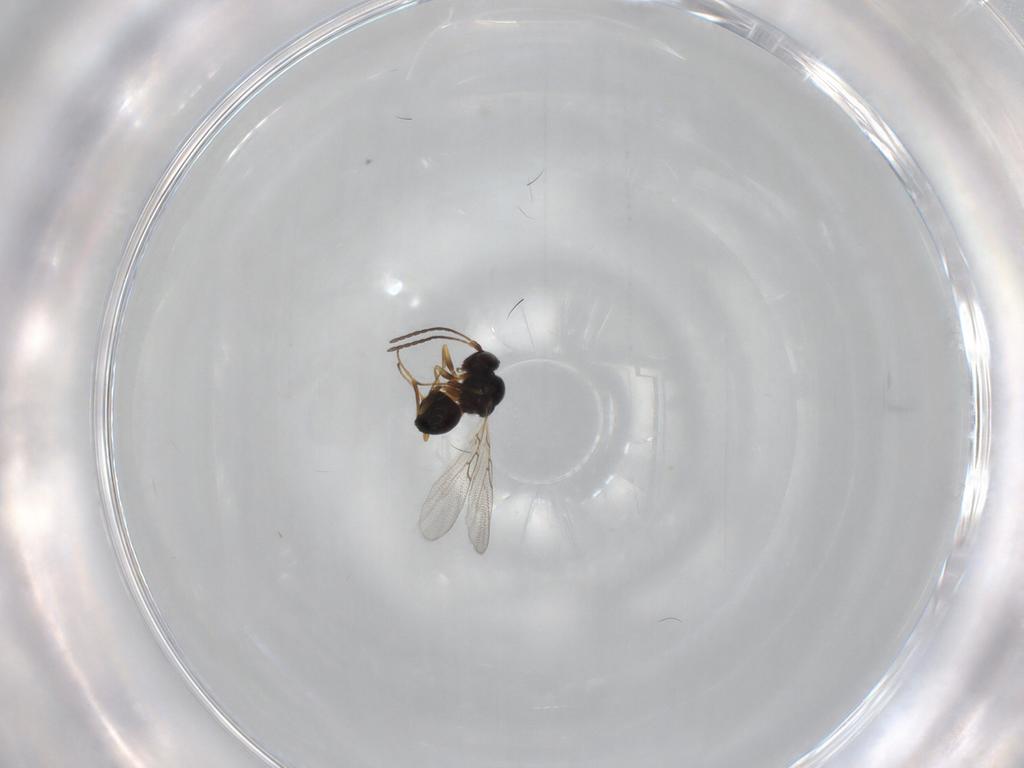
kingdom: Animalia
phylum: Arthropoda
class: Insecta
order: Hymenoptera
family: Figitidae
